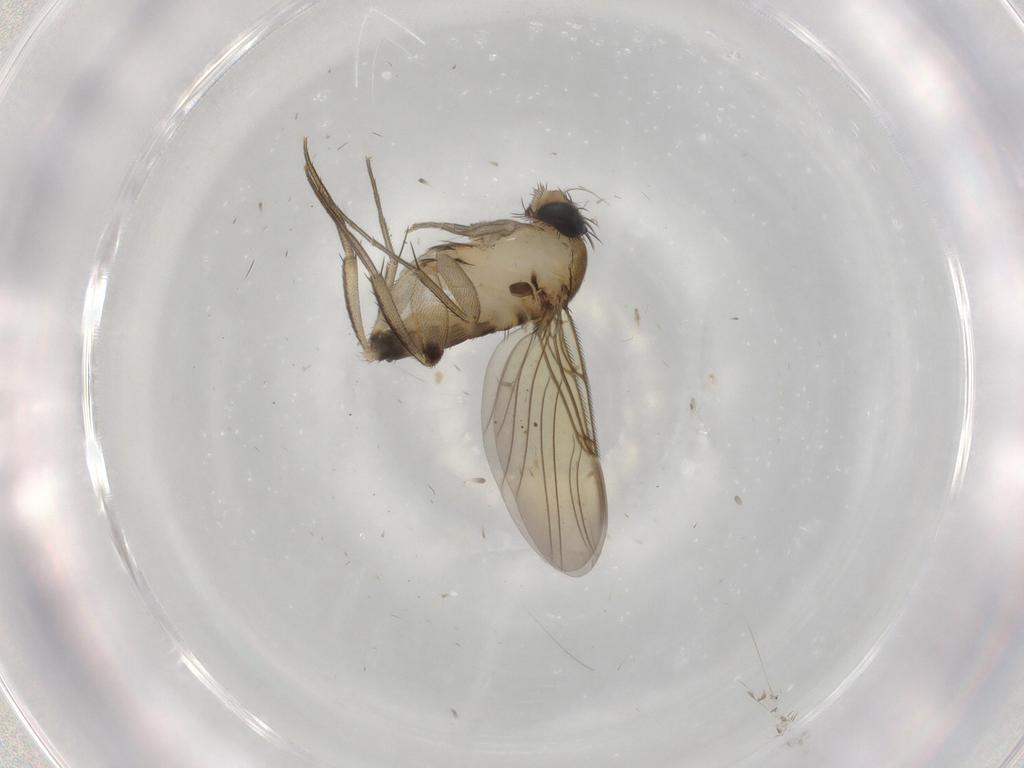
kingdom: Animalia
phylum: Arthropoda
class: Insecta
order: Diptera
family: Phoridae
